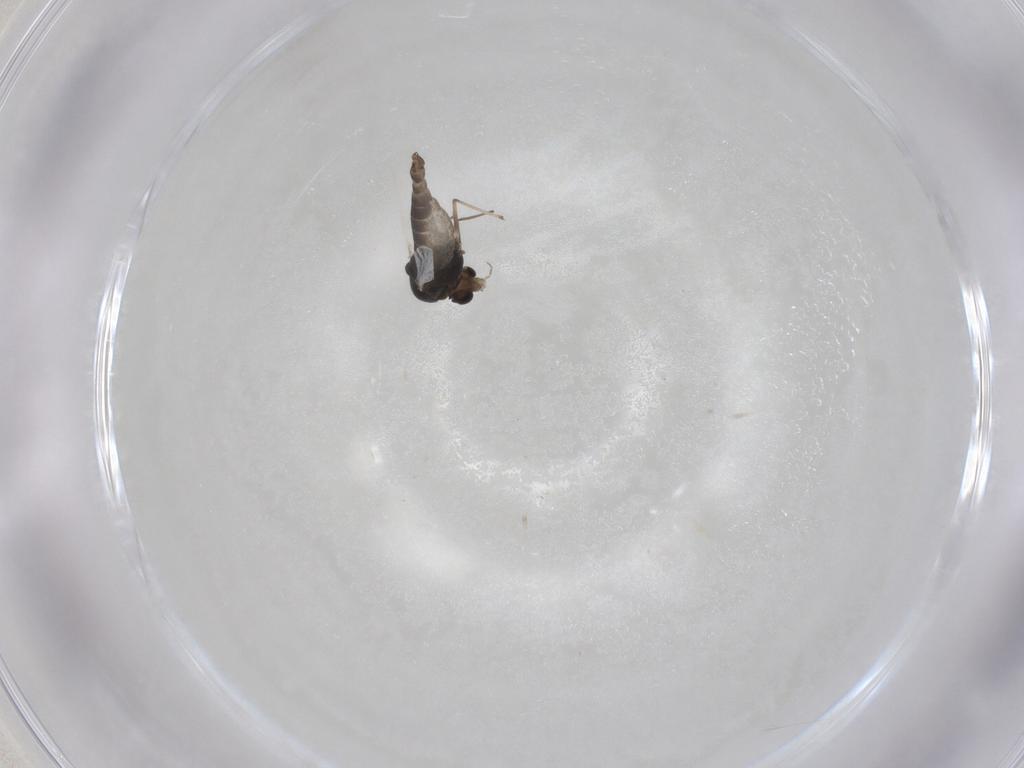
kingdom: Animalia
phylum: Arthropoda
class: Insecta
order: Diptera
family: Chironomidae
